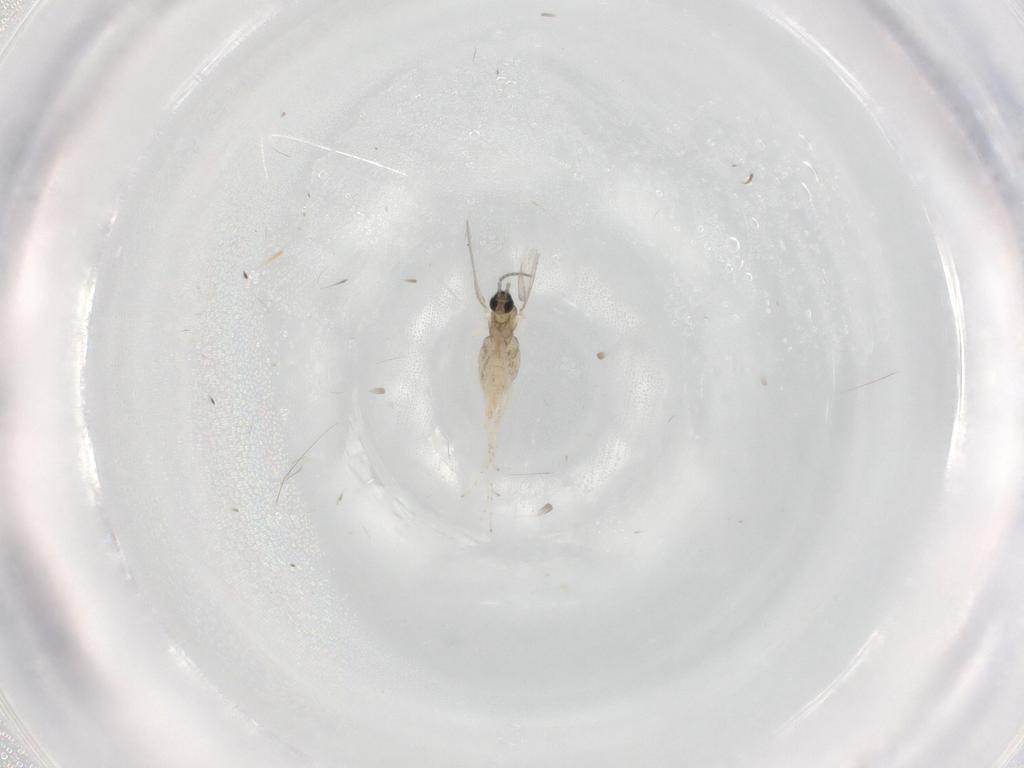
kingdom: Animalia
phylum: Arthropoda
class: Insecta
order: Diptera
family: Cecidomyiidae
